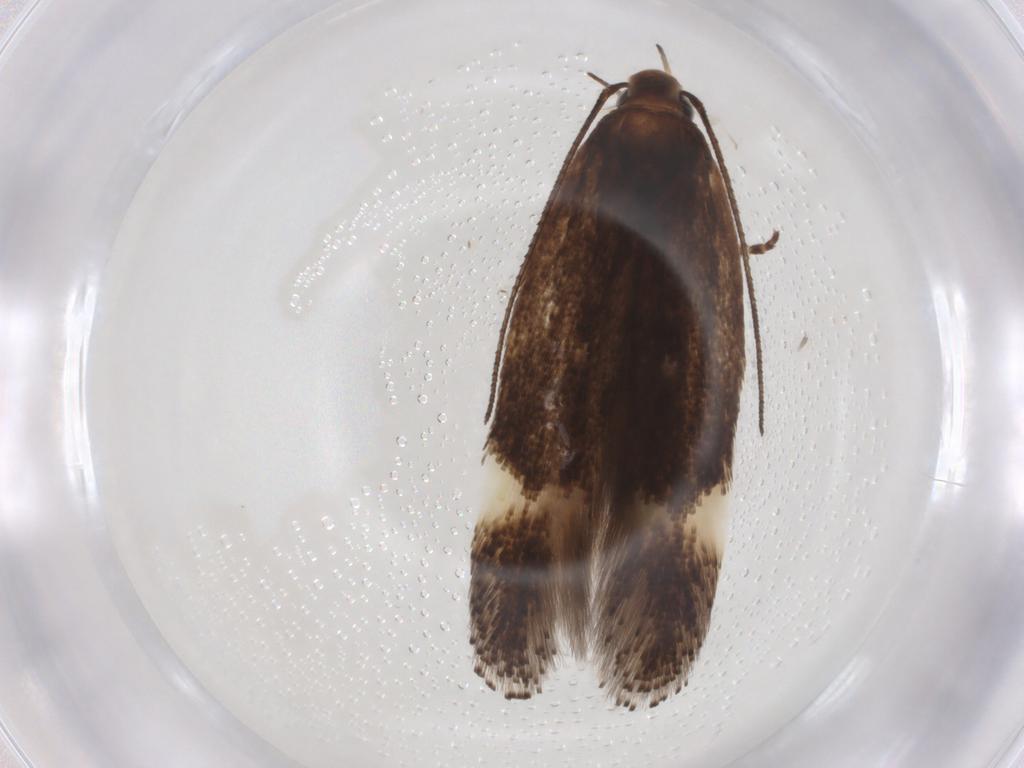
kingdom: Animalia
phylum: Arthropoda
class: Insecta
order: Lepidoptera
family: Gelechiidae
